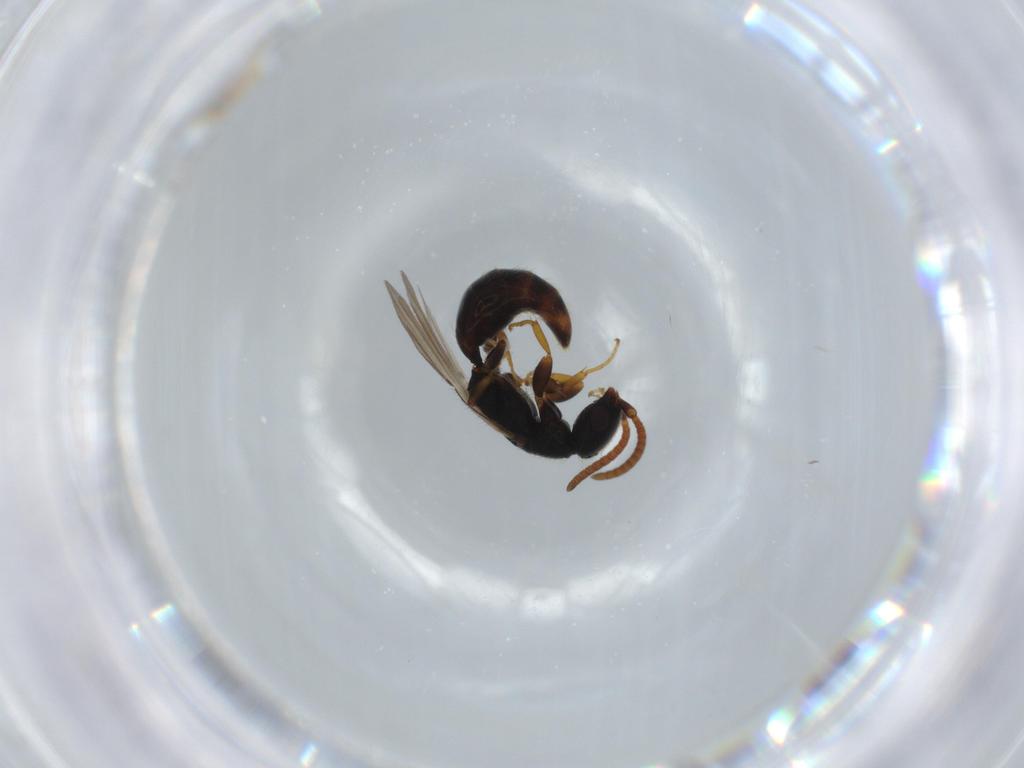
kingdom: Animalia
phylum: Arthropoda
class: Insecta
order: Hymenoptera
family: Bethylidae
